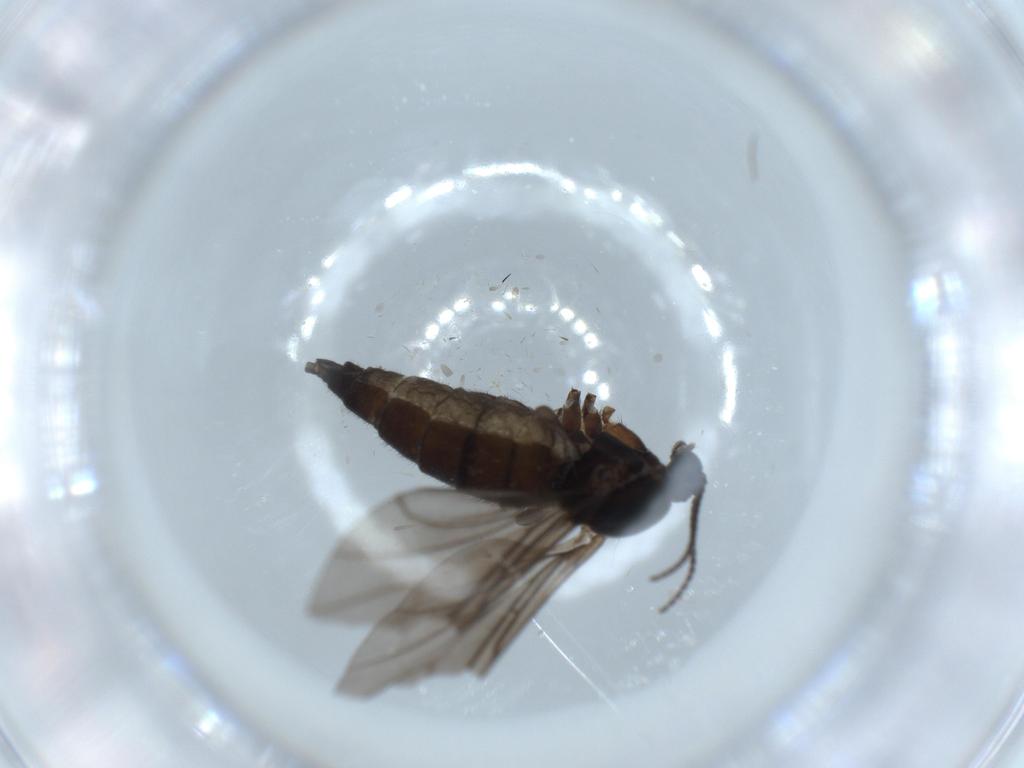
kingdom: Animalia
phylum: Arthropoda
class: Insecta
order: Diptera
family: Sciaridae
